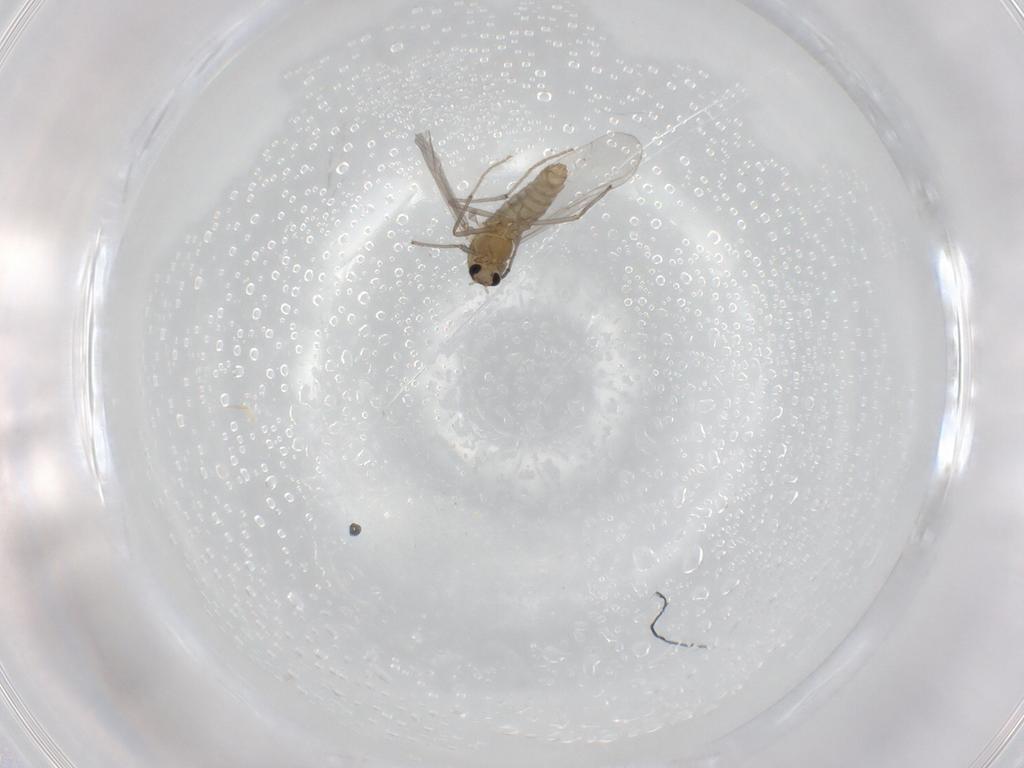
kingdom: Animalia
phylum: Arthropoda
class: Insecta
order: Diptera
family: Chironomidae
